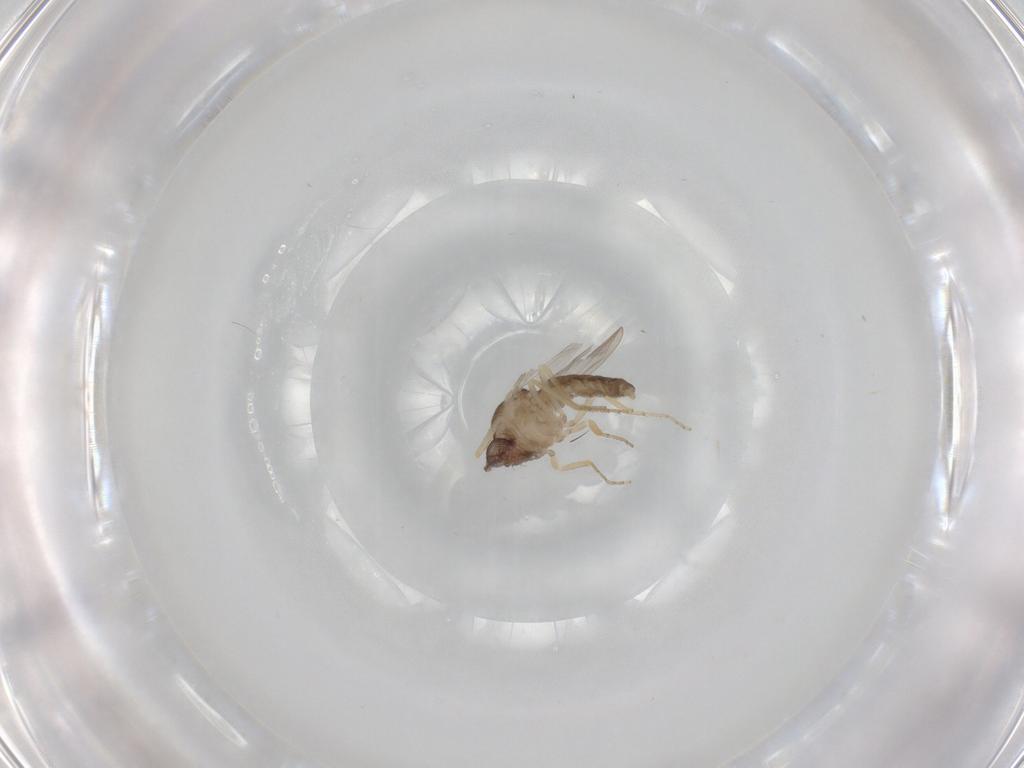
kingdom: Animalia
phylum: Arthropoda
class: Insecta
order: Diptera
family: Ceratopogonidae
